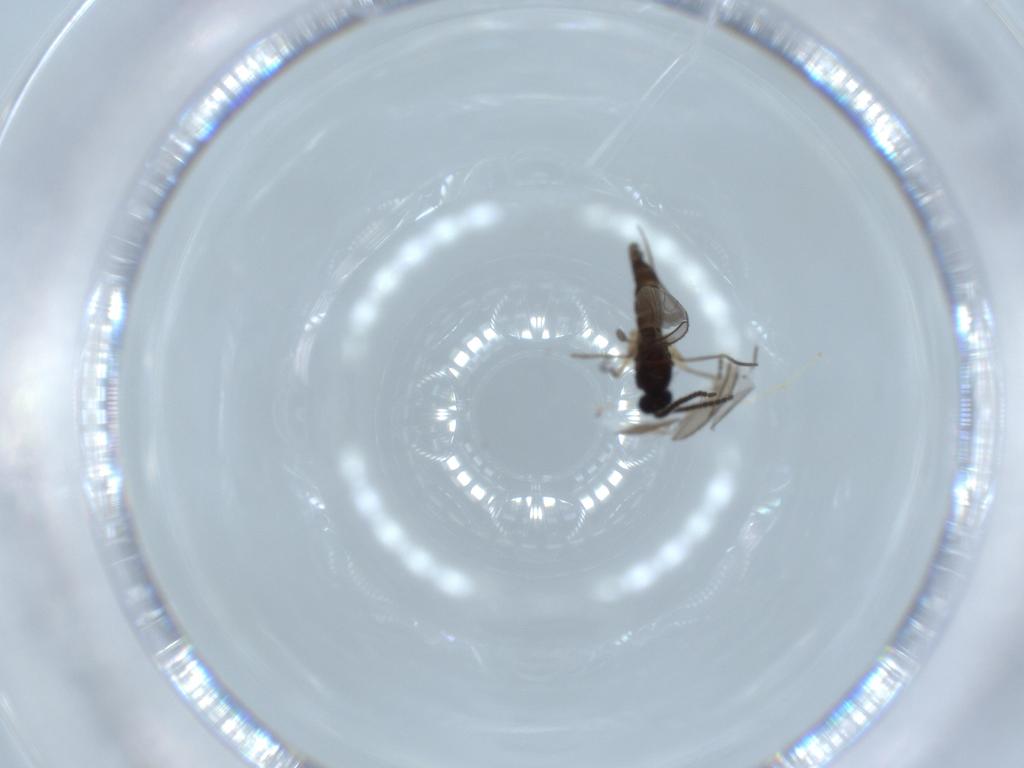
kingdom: Animalia
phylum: Arthropoda
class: Insecta
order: Diptera
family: Sciaridae
